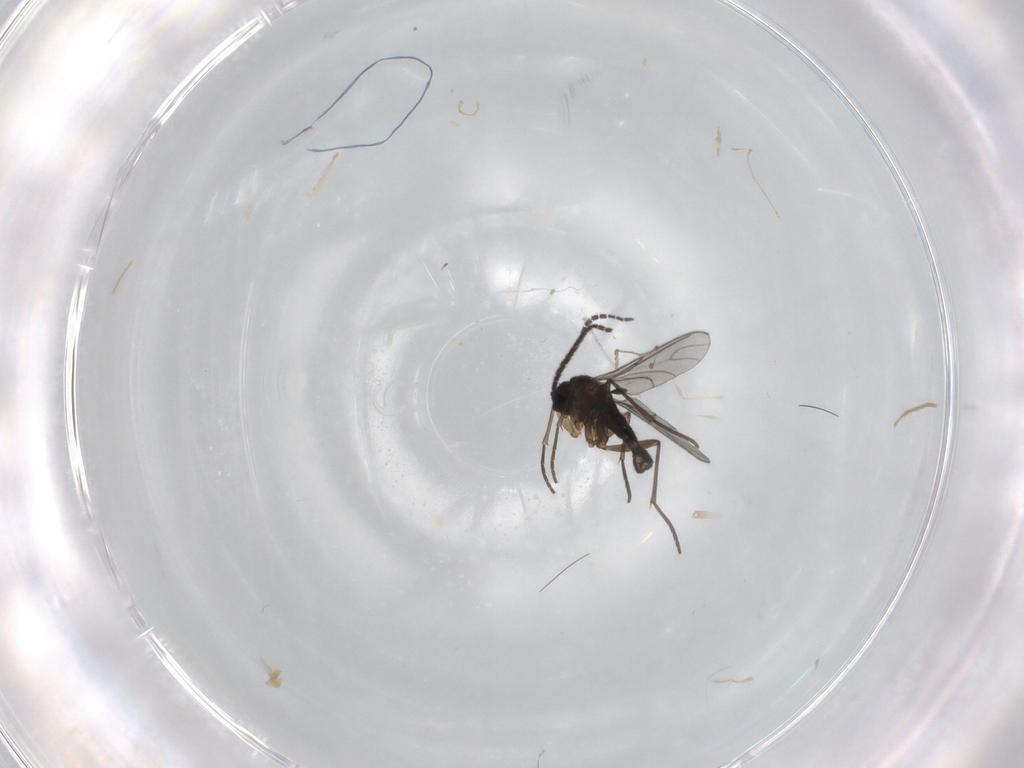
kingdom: Animalia
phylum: Arthropoda
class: Insecta
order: Diptera
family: Sciaridae
